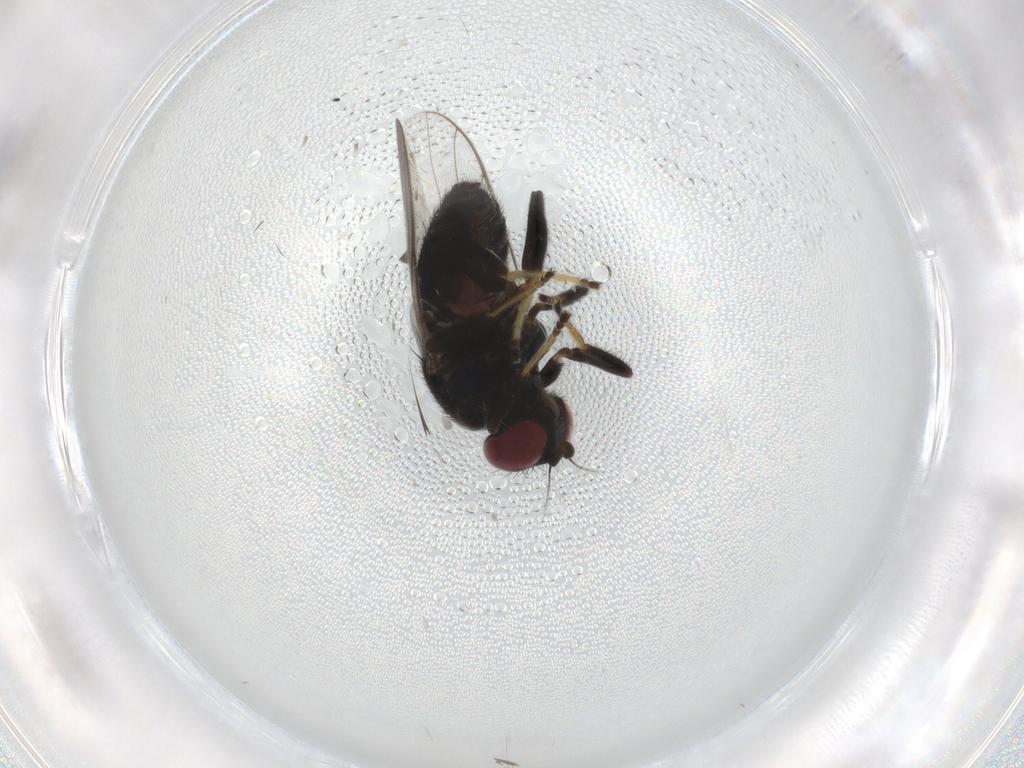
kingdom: Animalia
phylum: Arthropoda
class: Insecta
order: Diptera
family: Chloropidae
